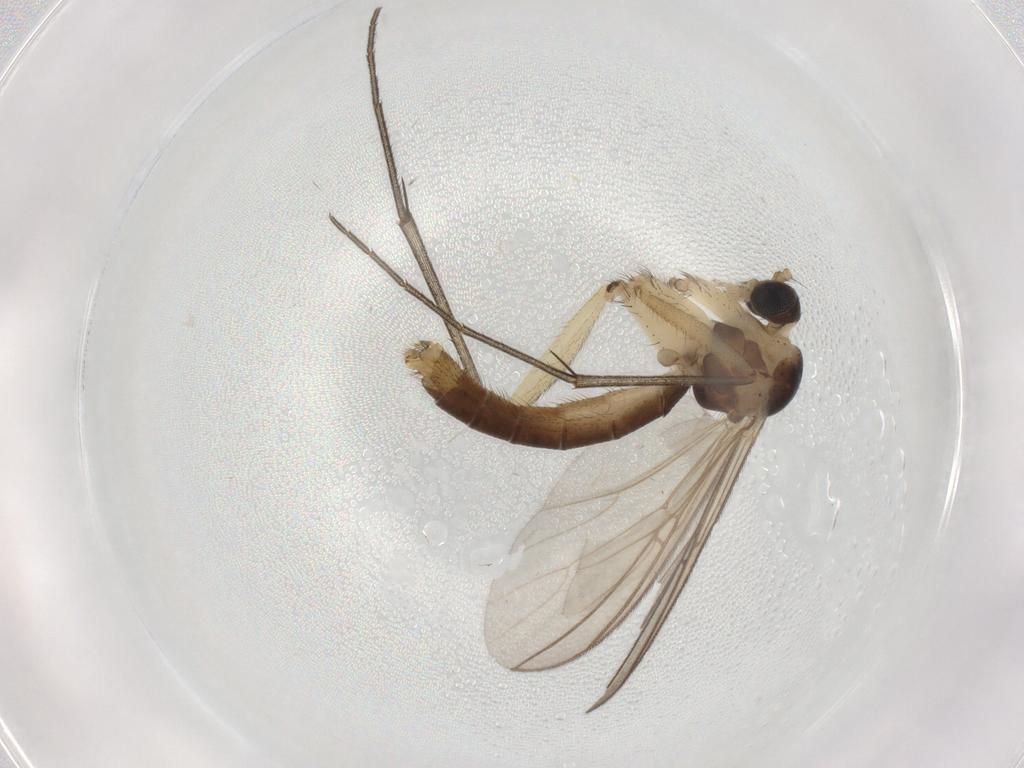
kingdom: Animalia
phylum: Arthropoda
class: Insecta
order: Diptera
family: Mycetophilidae
